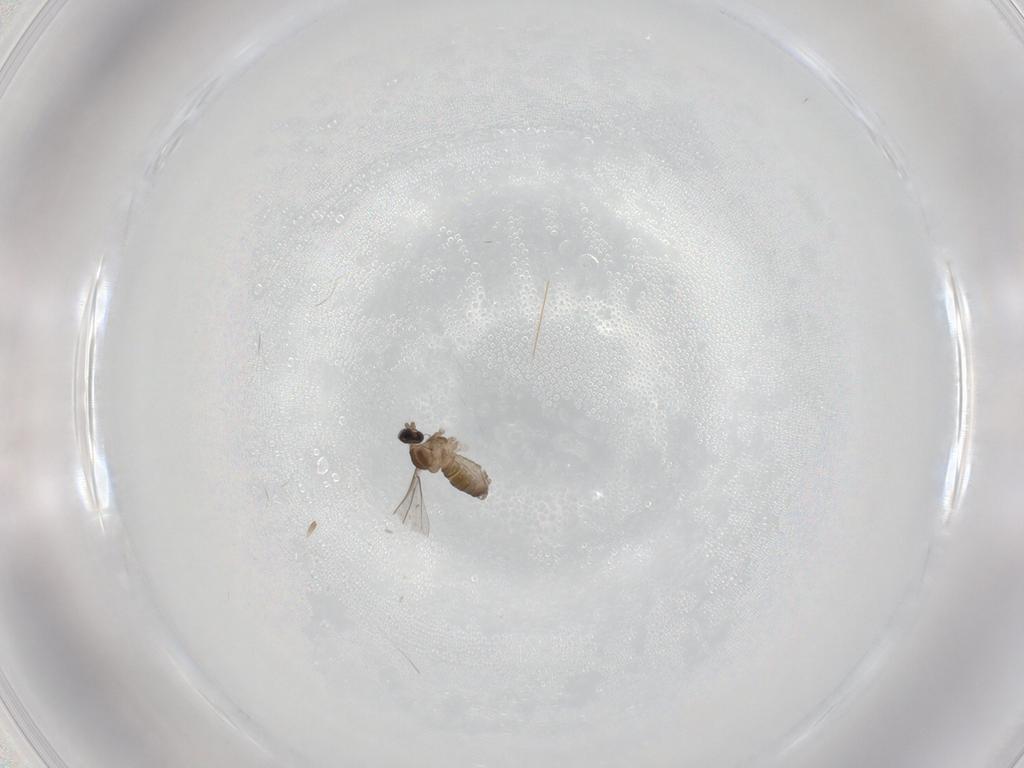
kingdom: Animalia
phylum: Arthropoda
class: Insecta
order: Diptera
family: Cecidomyiidae
